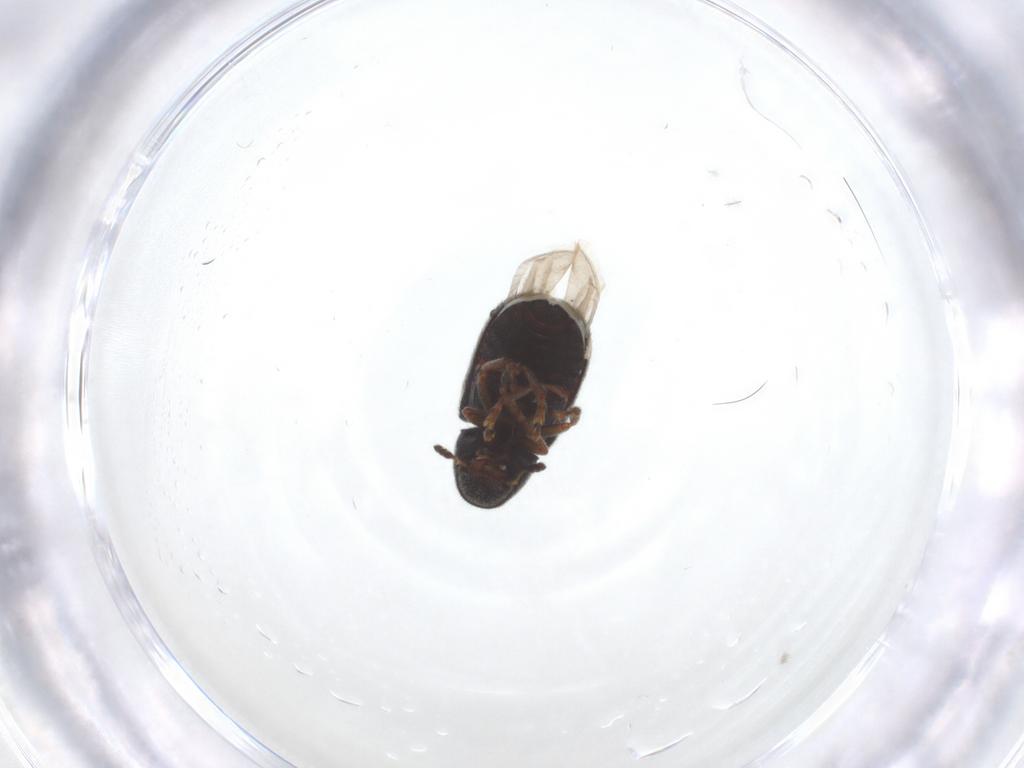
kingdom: Animalia
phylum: Arthropoda
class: Insecta
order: Coleoptera
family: Anthribidae
